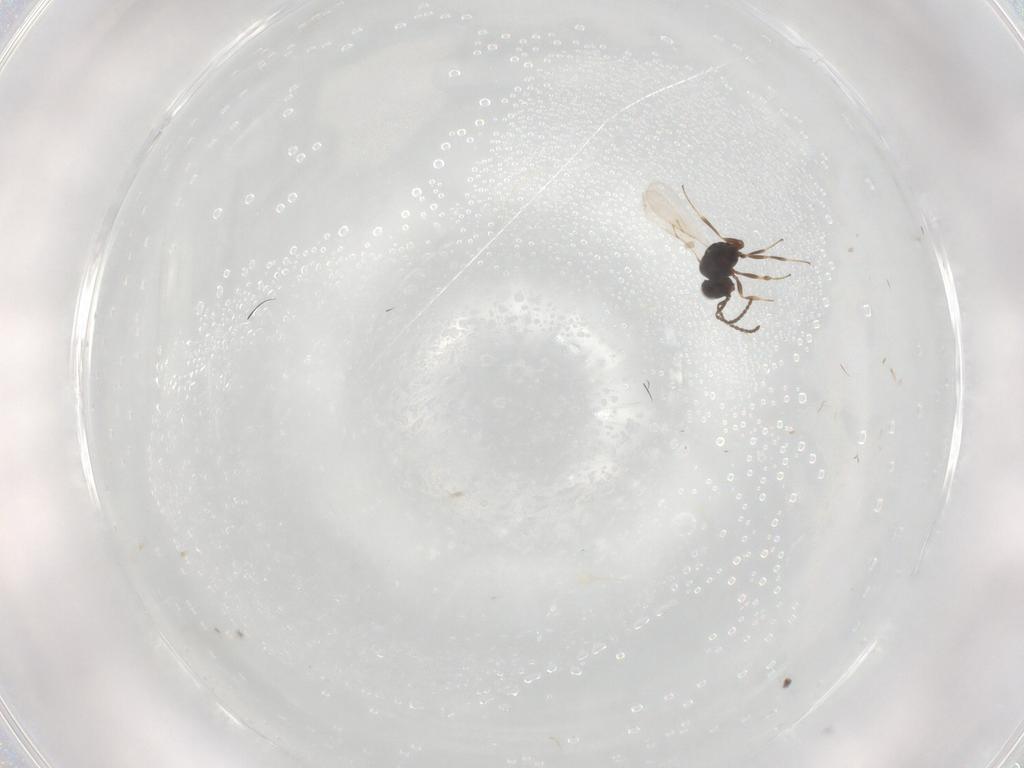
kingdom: Animalia
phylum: Arthropoda
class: Insecta
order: Hymenoptera
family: Scelionidae
